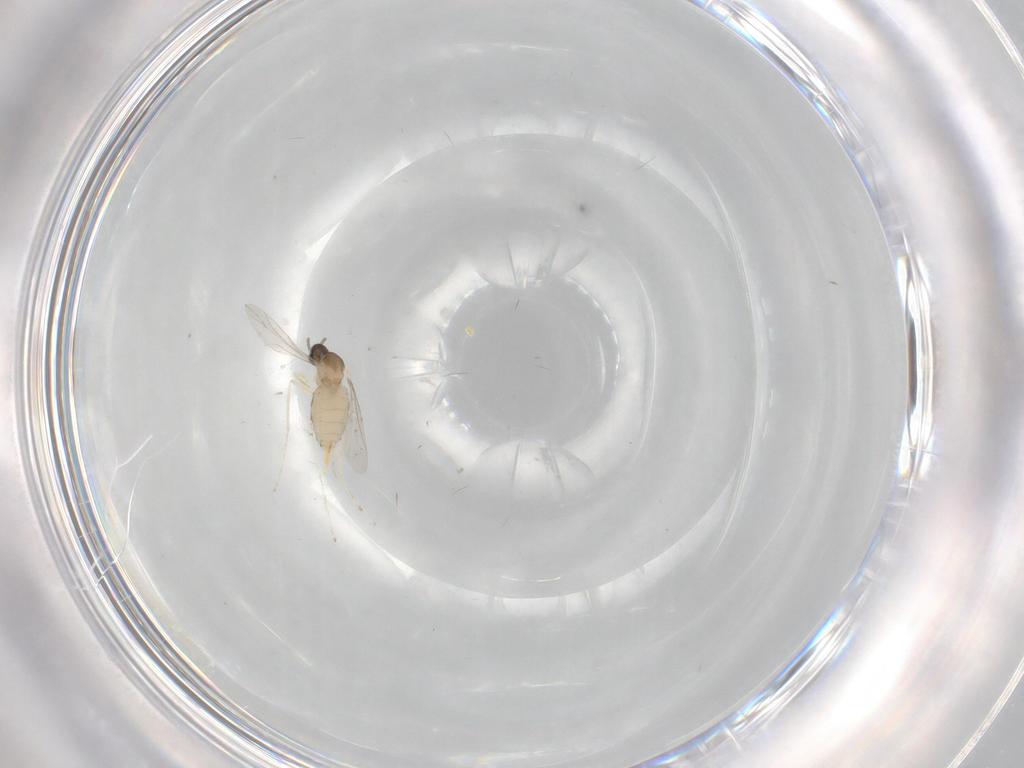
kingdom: Animalia
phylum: Arthropoda
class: Insecta
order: Diptera
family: Cecidomyiidae
